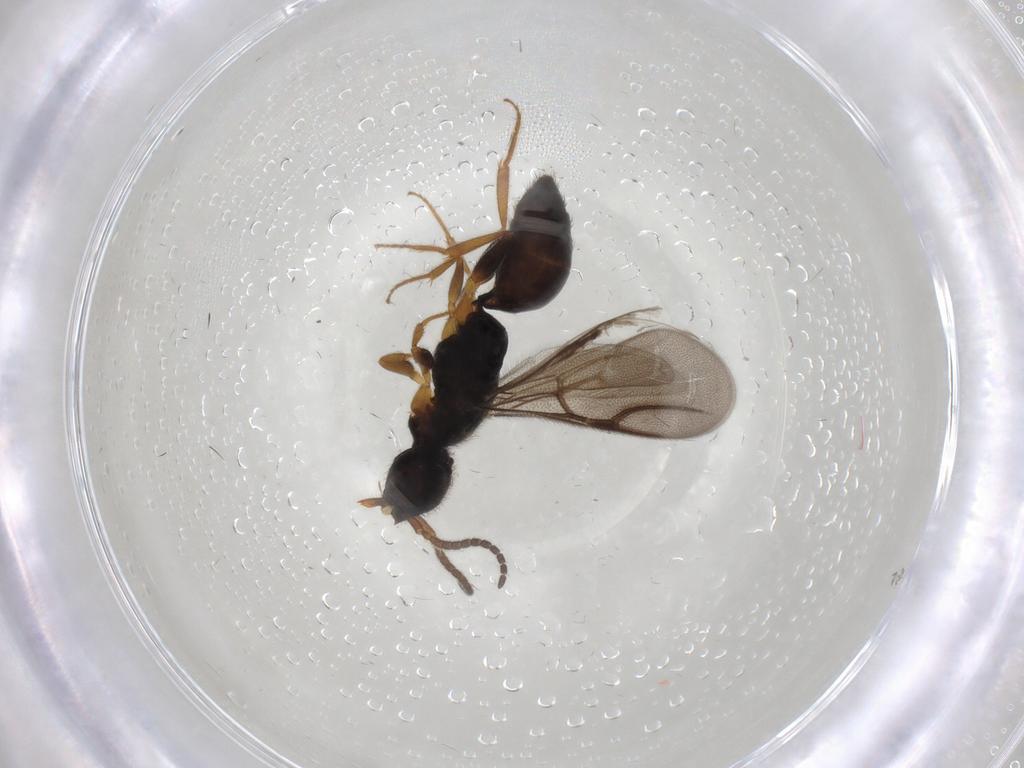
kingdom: Animalia
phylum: Arthropoda
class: Insecta
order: Hymenoptera
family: Bethylidae
